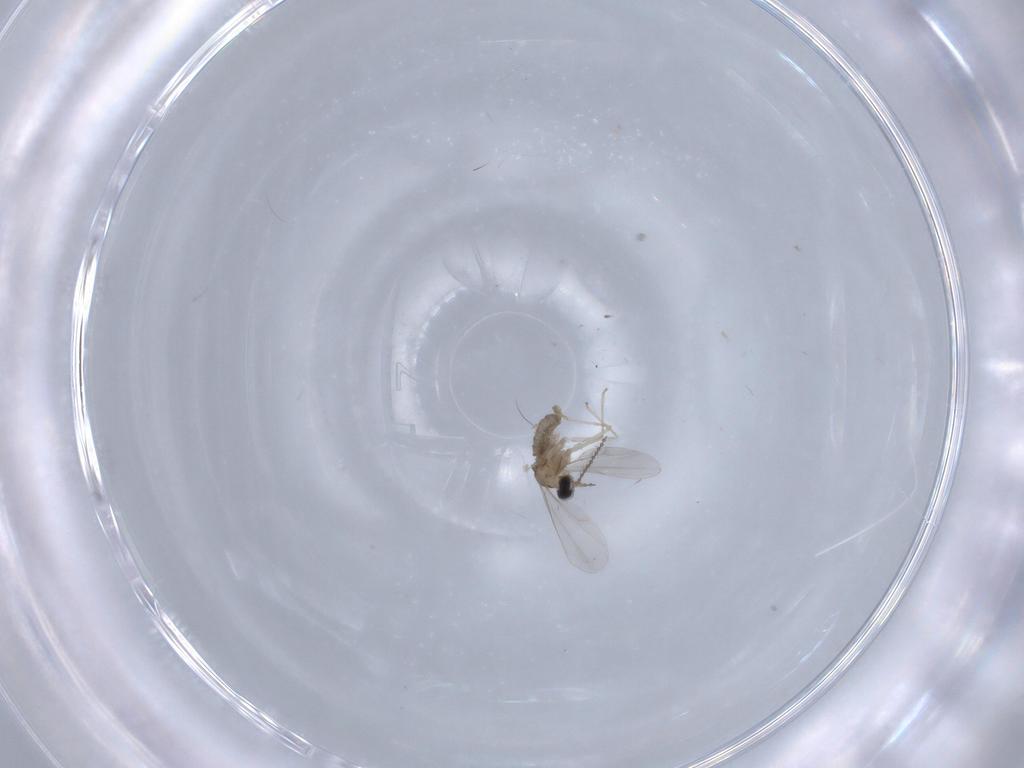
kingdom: Animalia
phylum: Arthropoda
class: Insecta
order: Diptera
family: Cecidomyiidae
